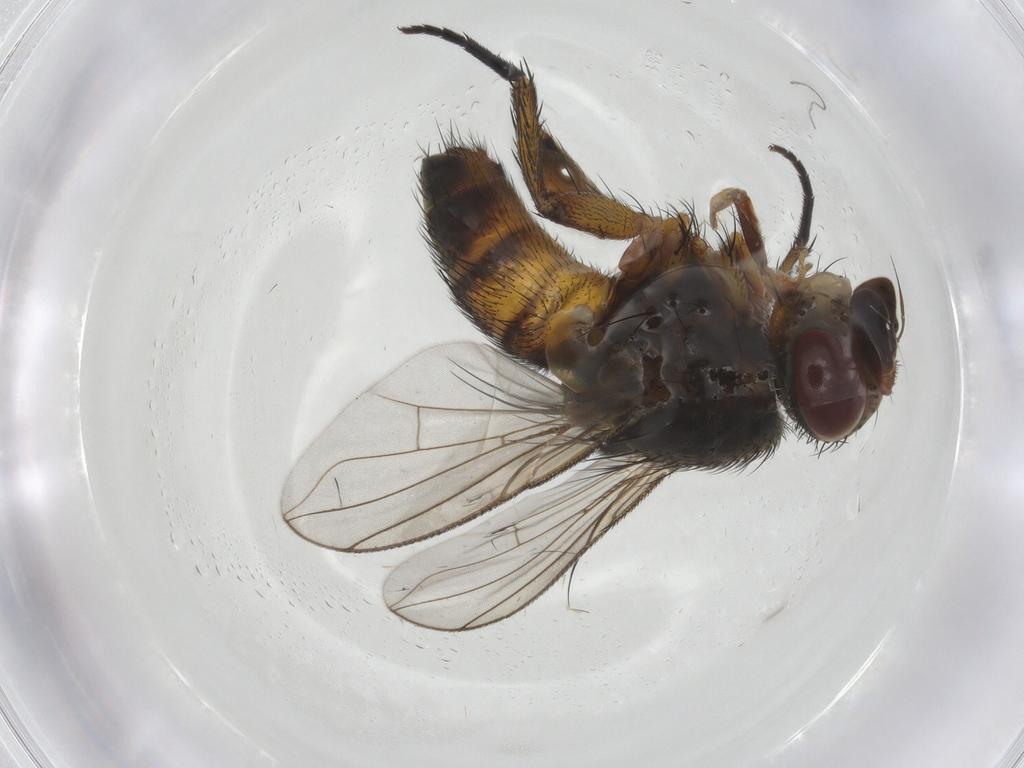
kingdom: Animalia
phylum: Arthropoda
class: Insecta
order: Diptera
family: Tachinidae
